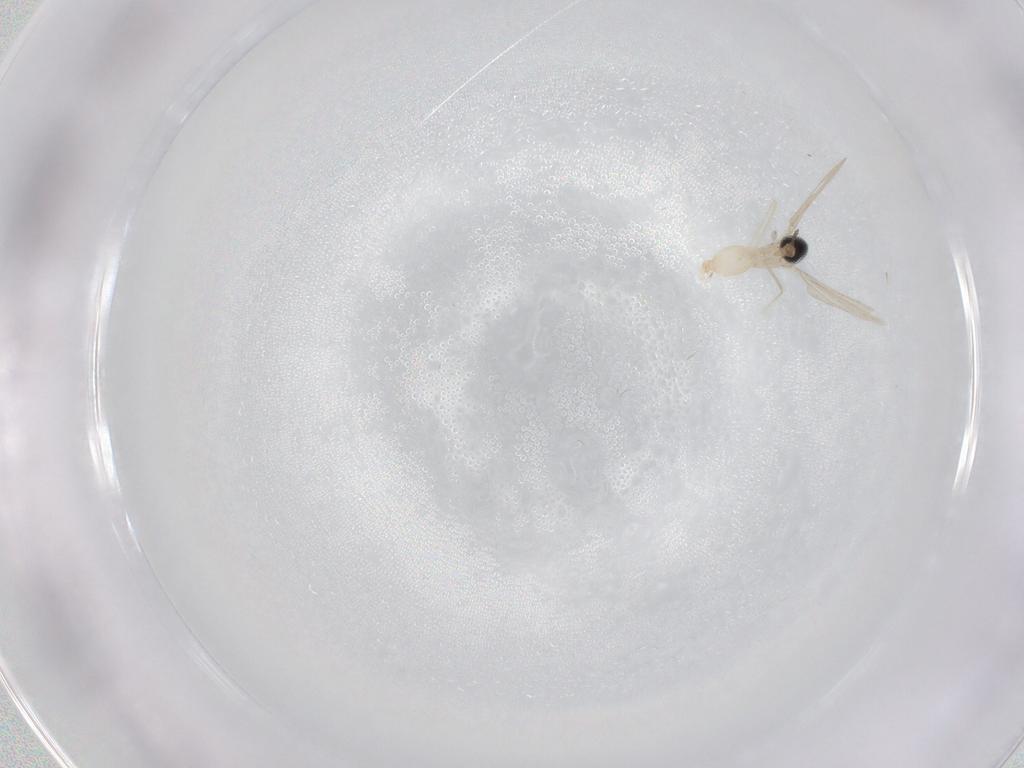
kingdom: Animalia
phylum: Arthropoda
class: Insecta
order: Diptera
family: Cecidomyiidae
